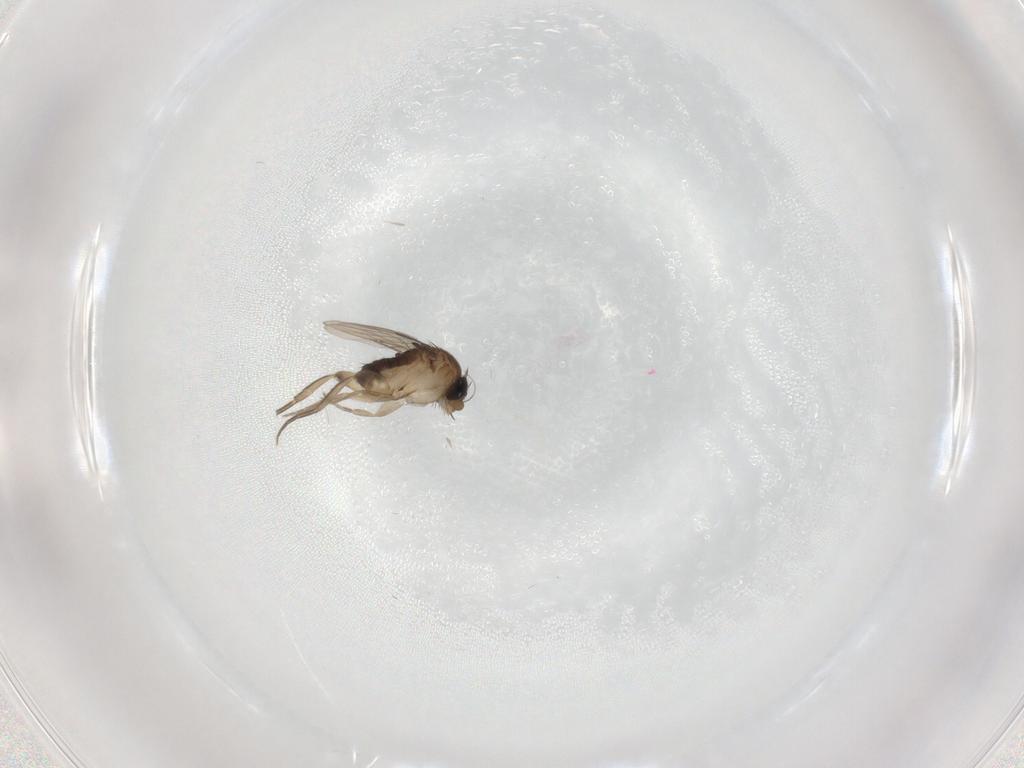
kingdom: Animalia
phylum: Arthropoda
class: Insecta
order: Diptera
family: Phoridae
